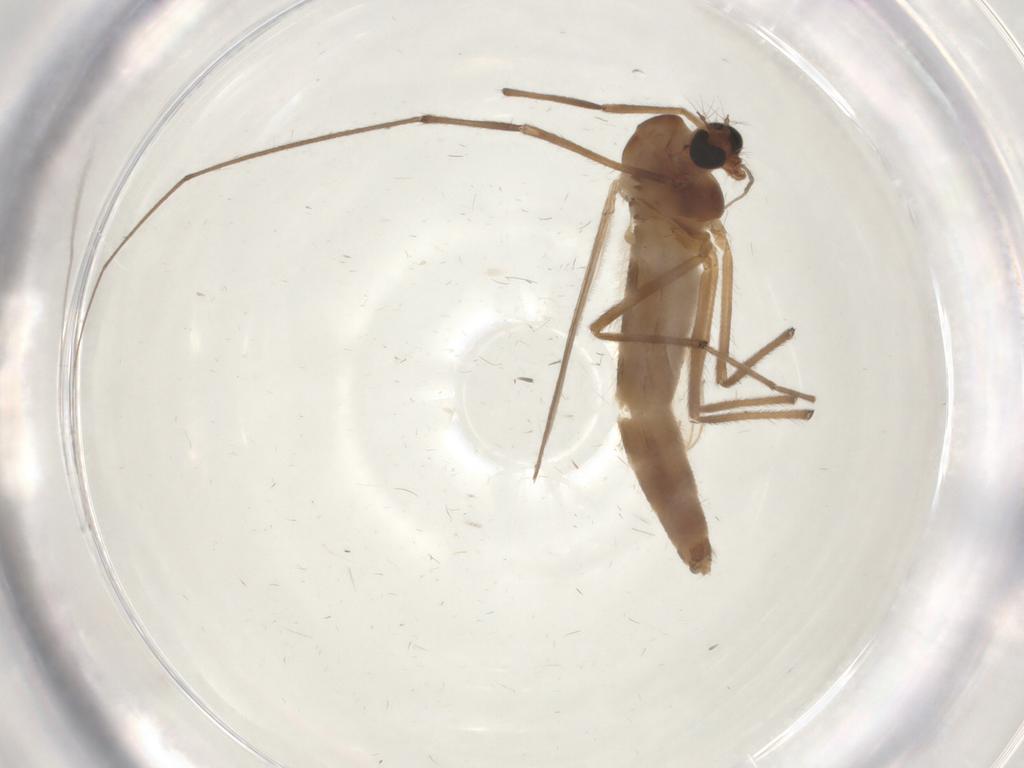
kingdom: Animalia
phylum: Arthropoda
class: Insecta
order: Diptera
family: Chironomidae
